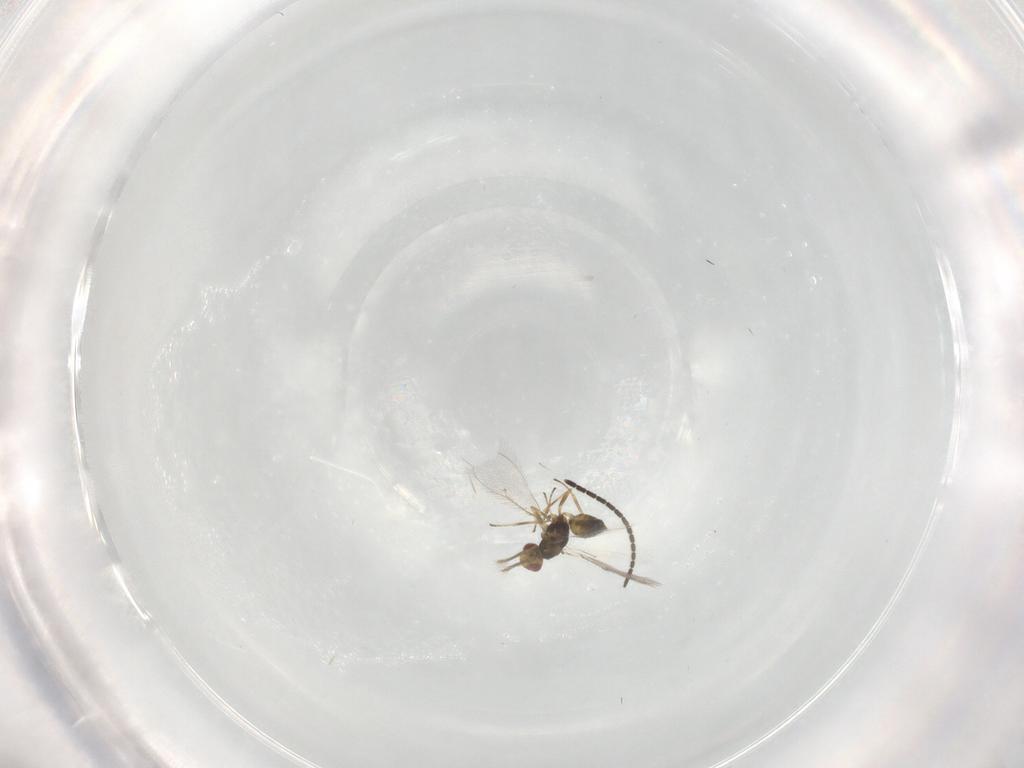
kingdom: Animalia
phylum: Arthropoda
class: Insecta
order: Hymenoptera
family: Eulophidae
